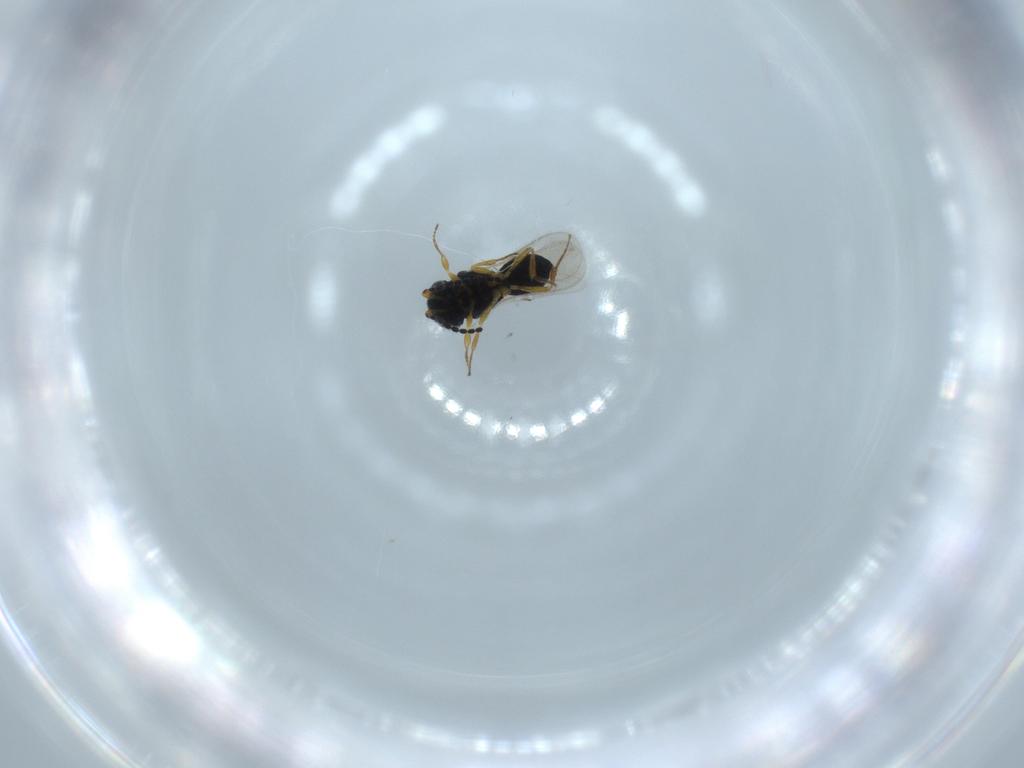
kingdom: Animalia
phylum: Arthropoda
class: Insecta
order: Hymenoptera
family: Scelionidae
